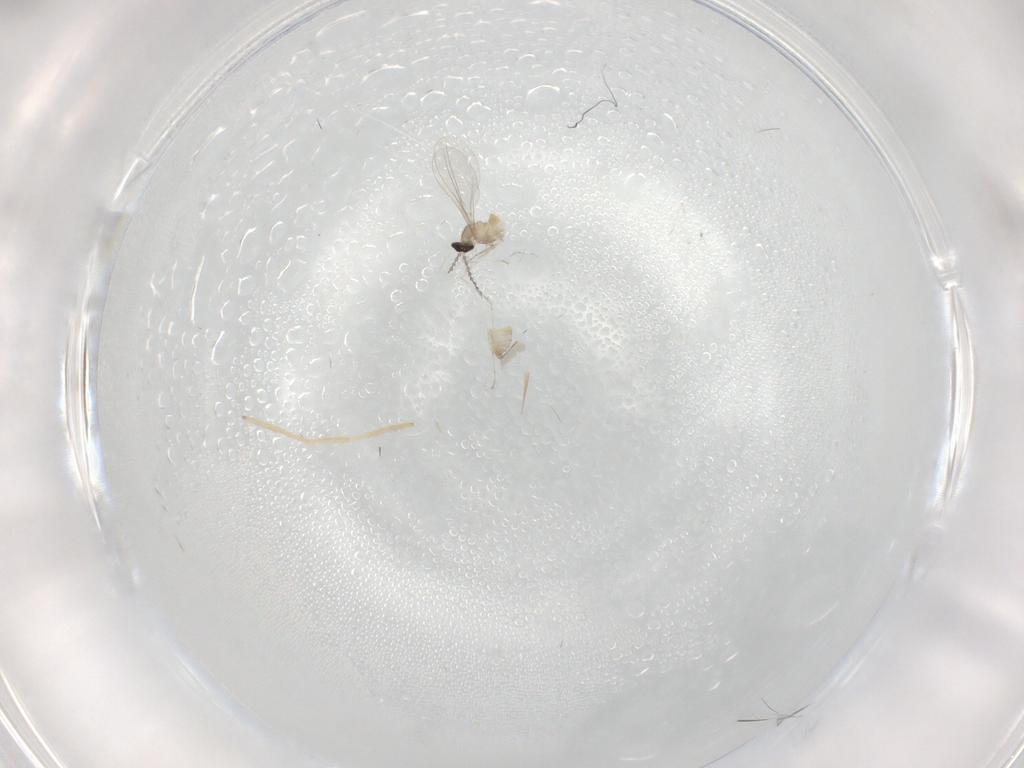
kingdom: Animalia
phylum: Arthropoda
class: Insecta
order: Diptera
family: Cecidomyiidae
